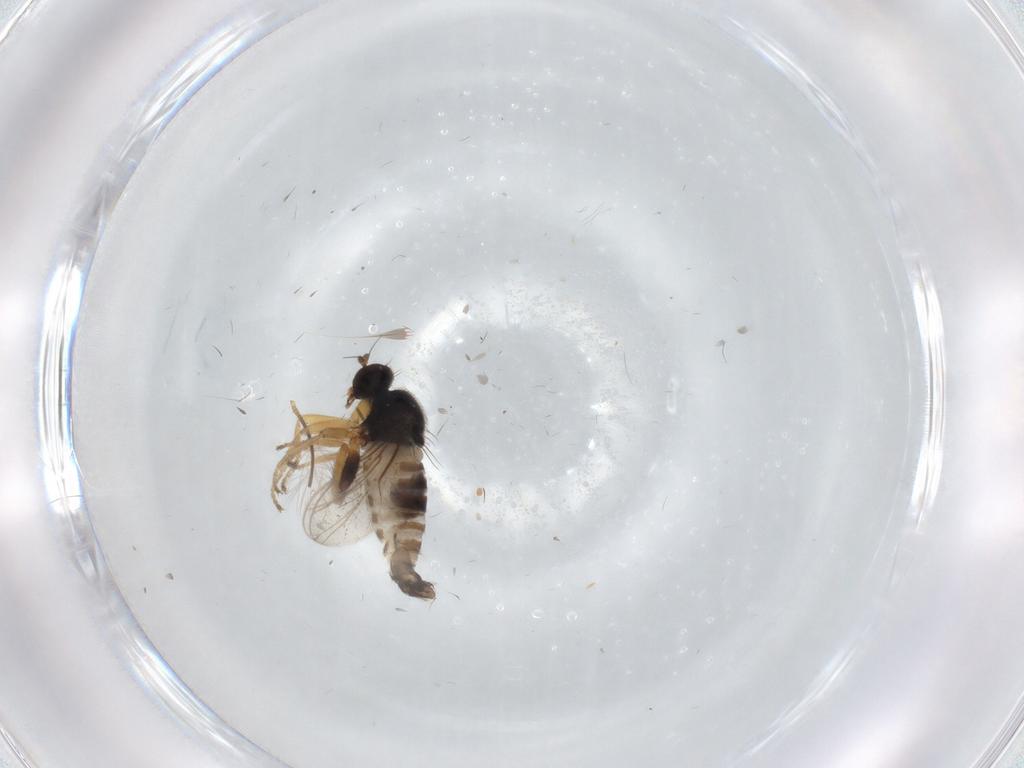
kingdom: Animalia
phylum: Arthropoda
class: Insecta
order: Diptera
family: Hybotidae
